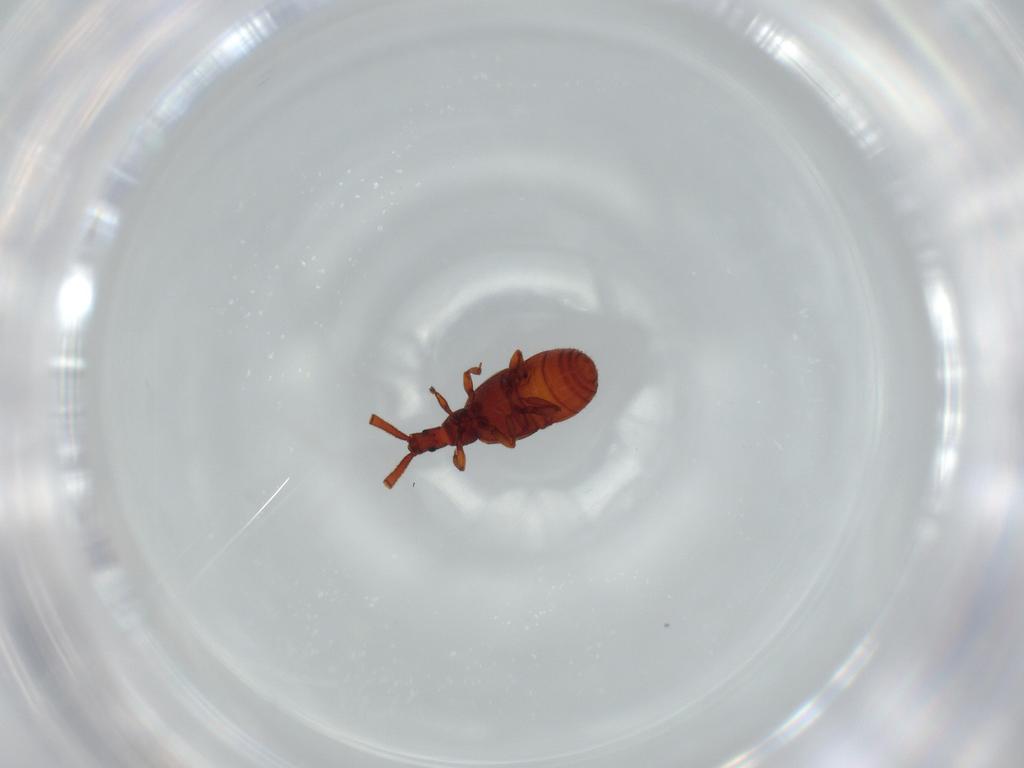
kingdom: Animalia
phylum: Arthropoda
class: Insecta
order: Coleoptera
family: Staphylinidae
